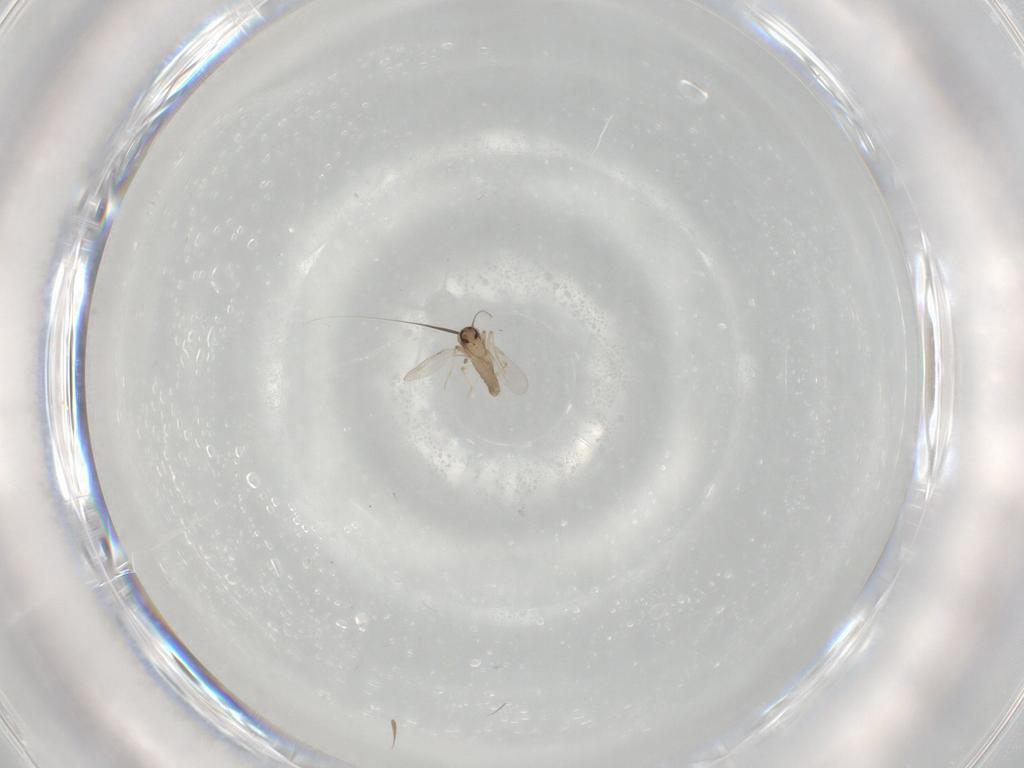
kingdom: Animalia
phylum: Arthropoda
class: Insecta
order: Diptera
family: Ceratopogonidae
